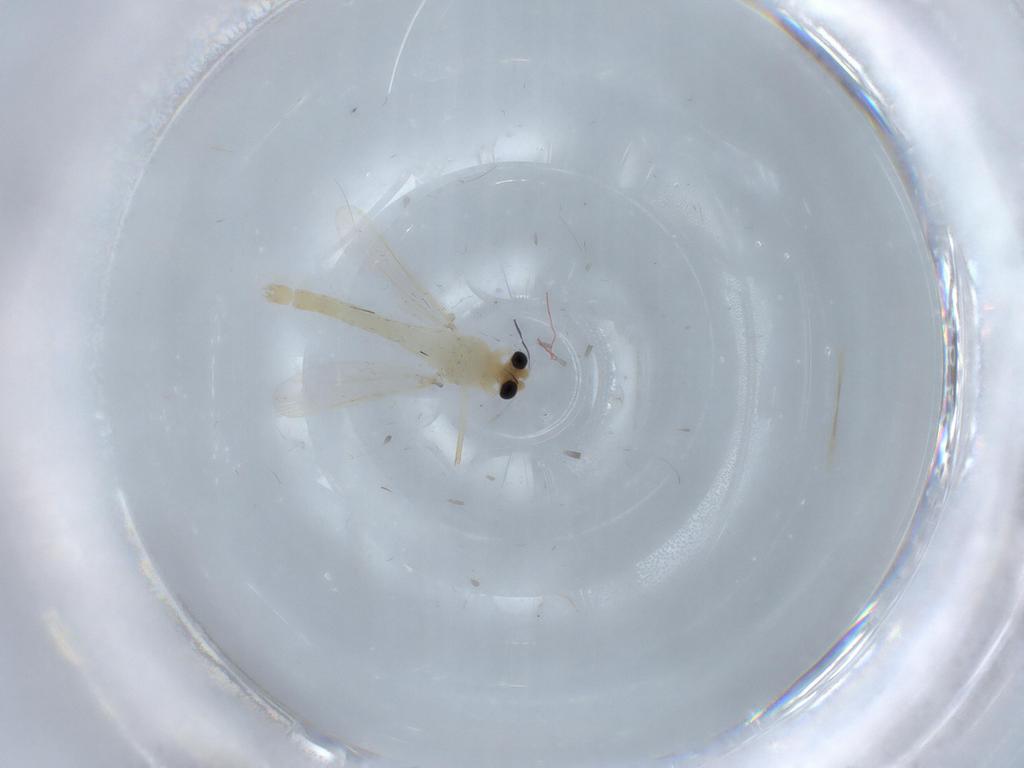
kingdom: Animalia
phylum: Arthropoda
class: Insecta
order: Diptera
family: Chironomidae
